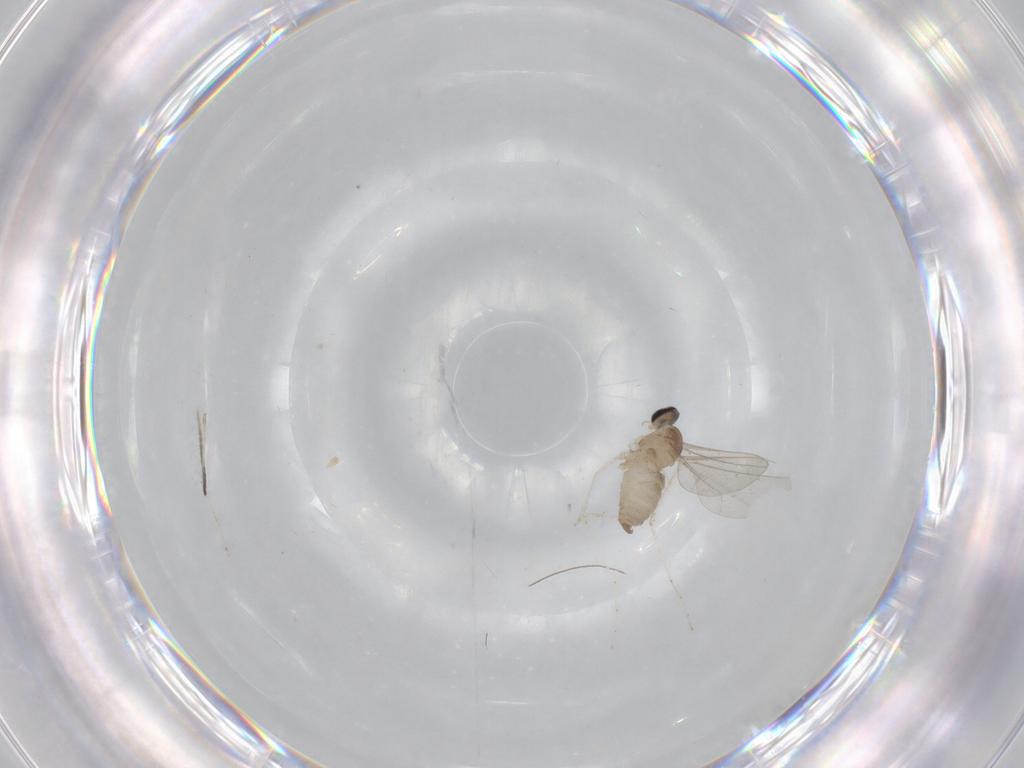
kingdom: Animalia
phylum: Arthropoda
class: Insecta
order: Diptera
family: Cecidomyiidae
